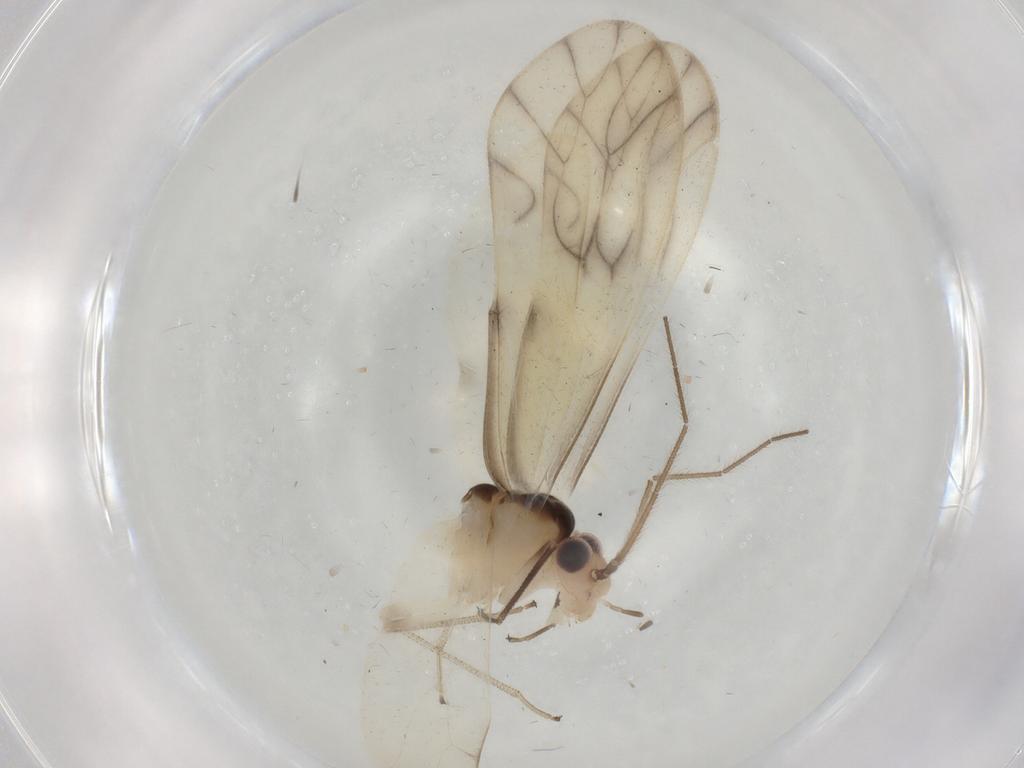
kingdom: Animalia
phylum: Arthropoda
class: Insecta
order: Psocodea
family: Caeciliusidae
